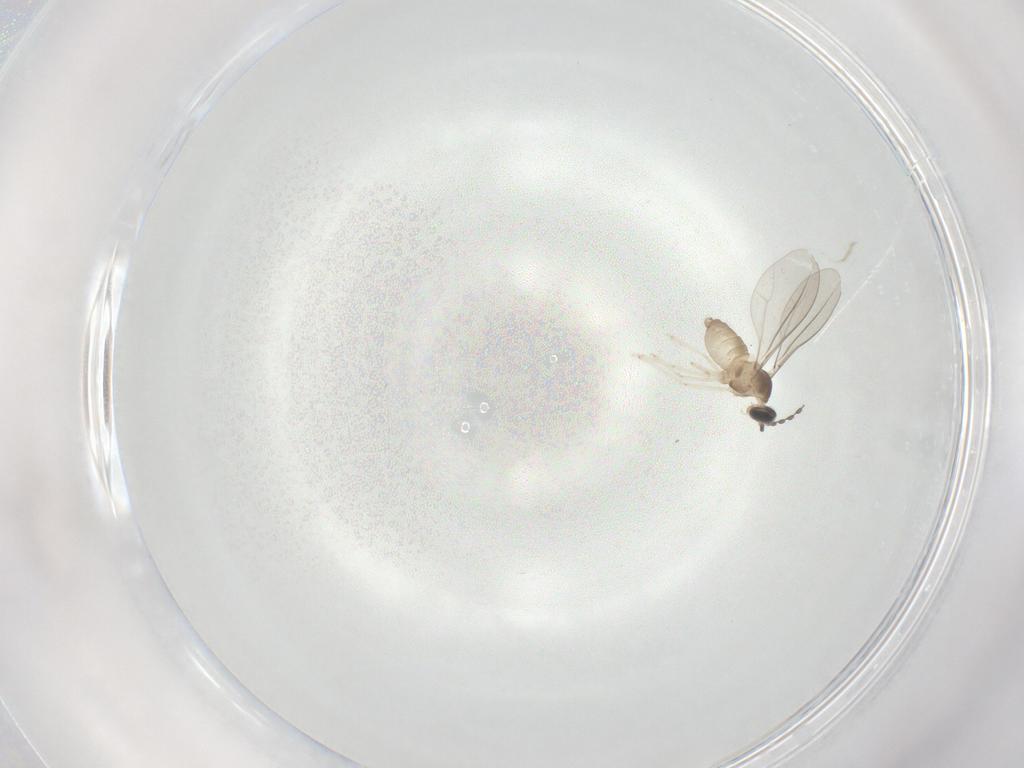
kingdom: Animalia
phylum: Arthropoda
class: Insecta
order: Diptera
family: Cecidomyiidae
